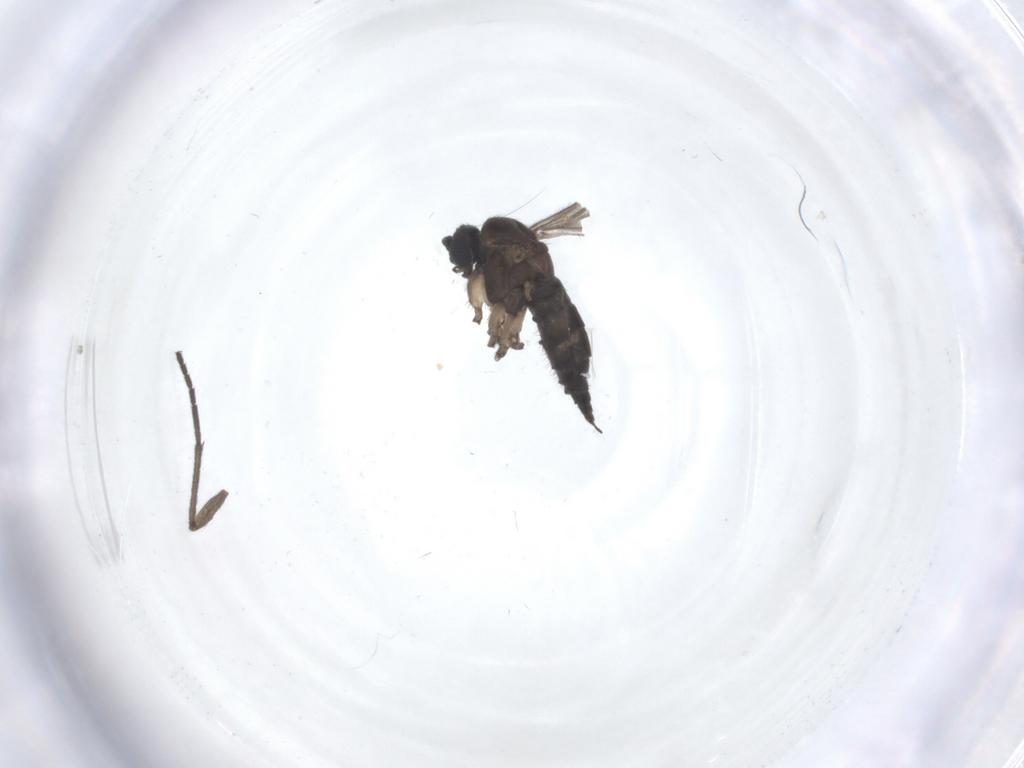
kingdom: Animalia
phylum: Arthropoda
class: Insecta
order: Diptera
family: Sciaridae
